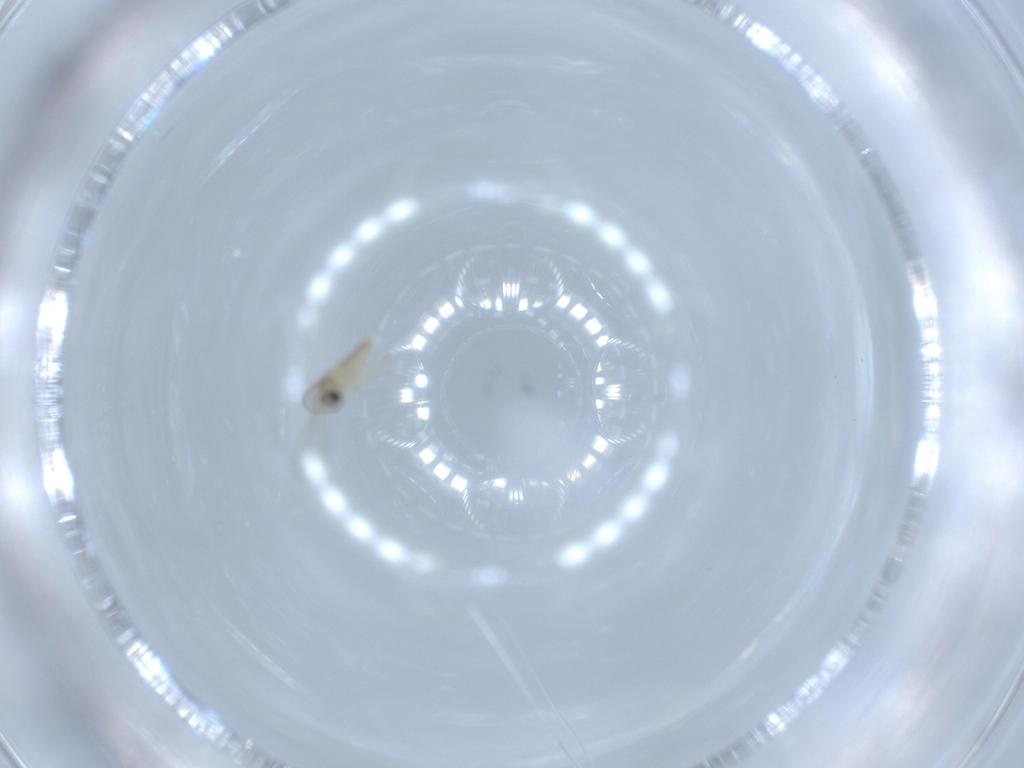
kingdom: Animalia
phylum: Arthropoda
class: Insecta
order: Diptera
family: Cecidomyiidae
